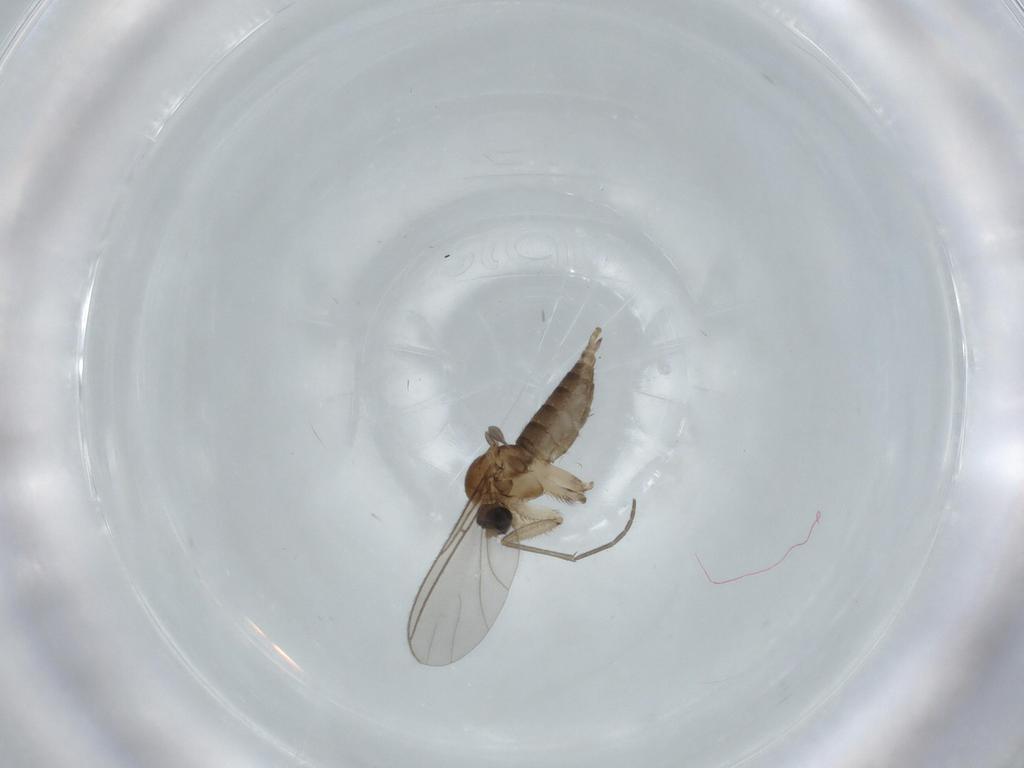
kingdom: Animalia
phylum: Arthropoda
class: Insecta
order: Diptera
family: Sciaridae
